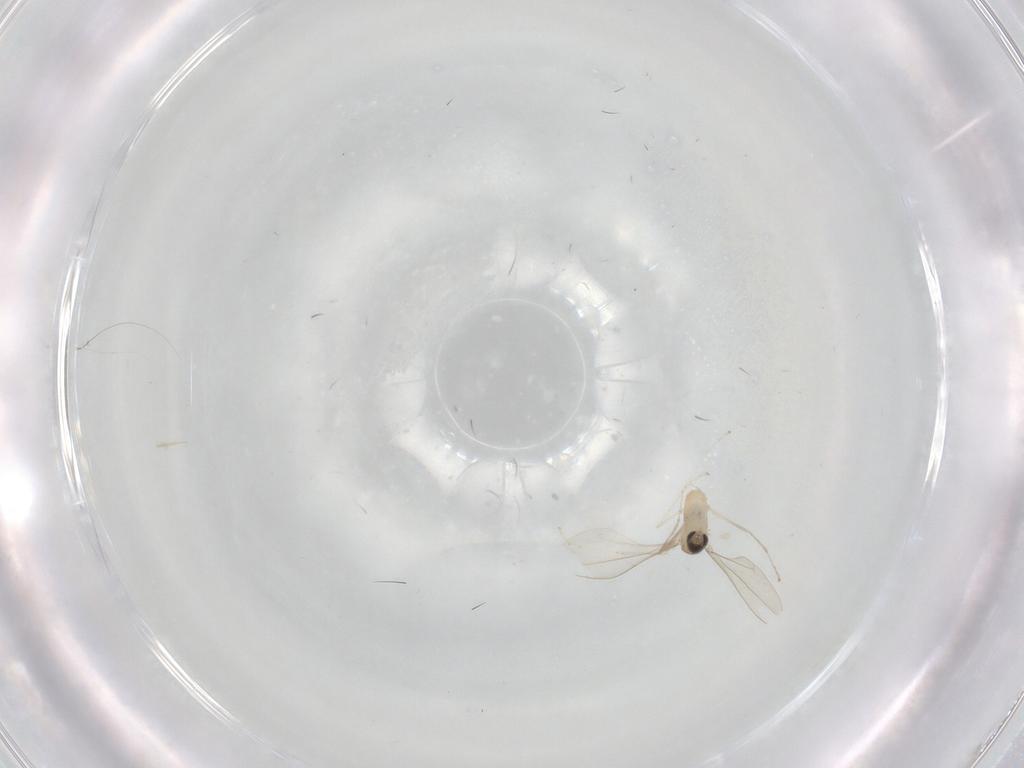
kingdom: Animalia
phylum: Arthropoda
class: Insecta
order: Diptera
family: Cecidomyiidae
